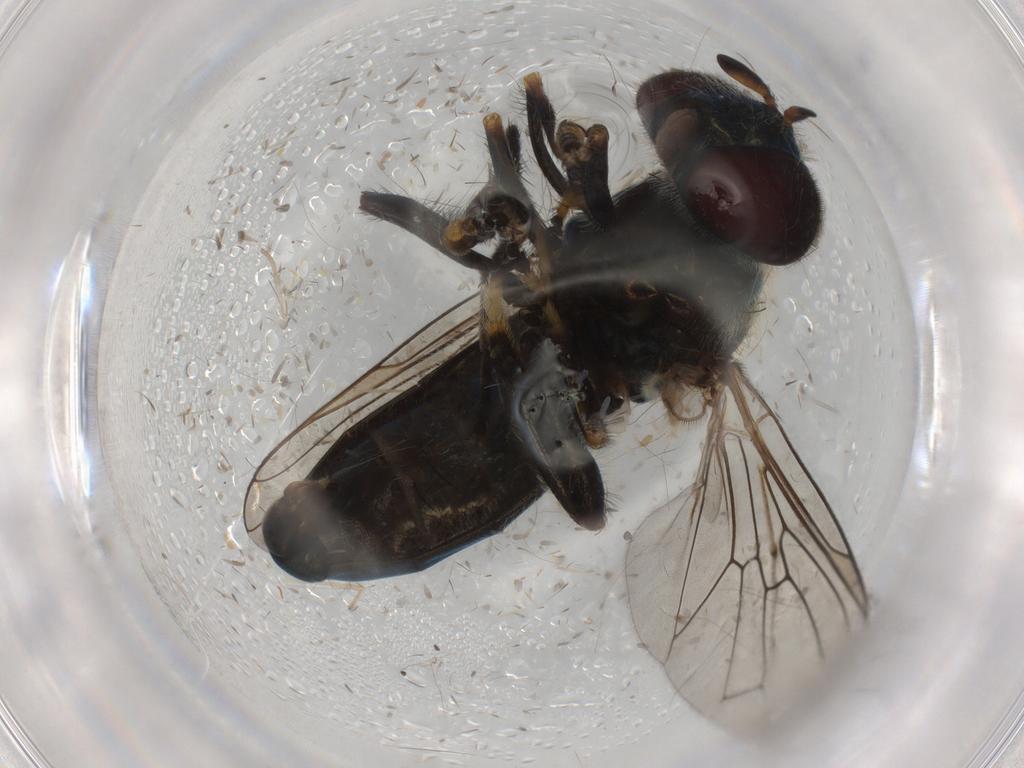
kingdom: Animalia
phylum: Arthropoda
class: Insecta
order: Diptera
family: Syrphidae
